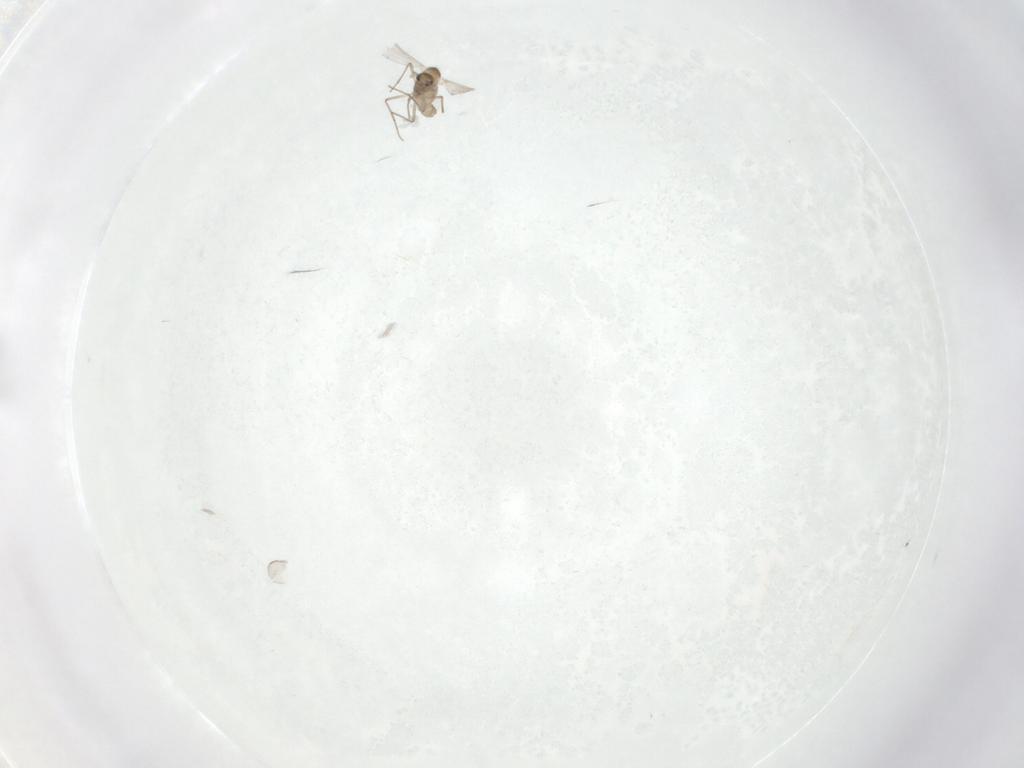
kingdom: Animalia
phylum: Arthropoda
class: Insecta
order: Diptera
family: Chironomidae
